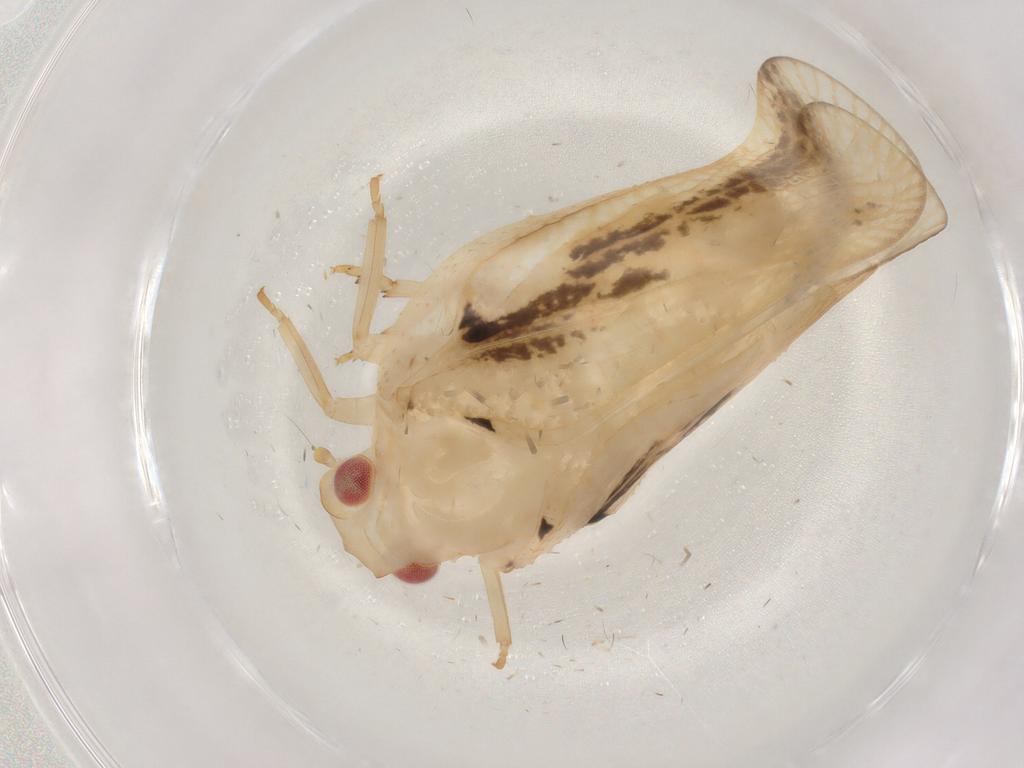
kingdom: Animalia
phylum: Arthropoda
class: Insecta
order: Hemiptera
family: Flatidae
